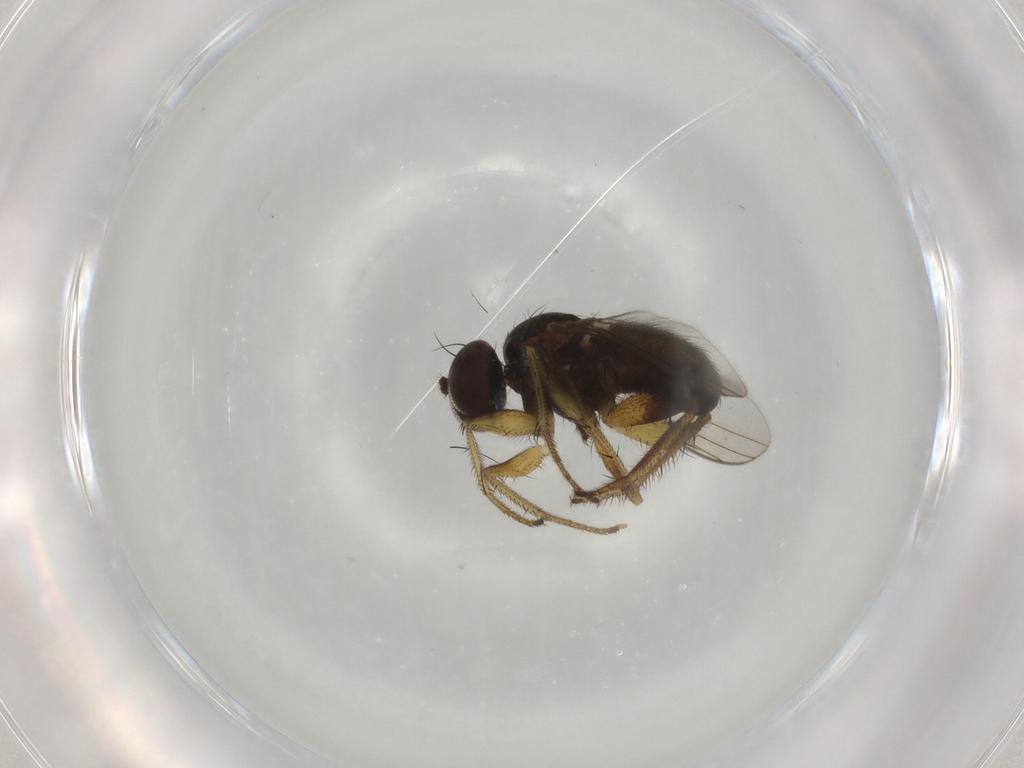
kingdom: Animalia
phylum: Arthropoda
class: Insecta
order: Diptera
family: Dolichopodidae
